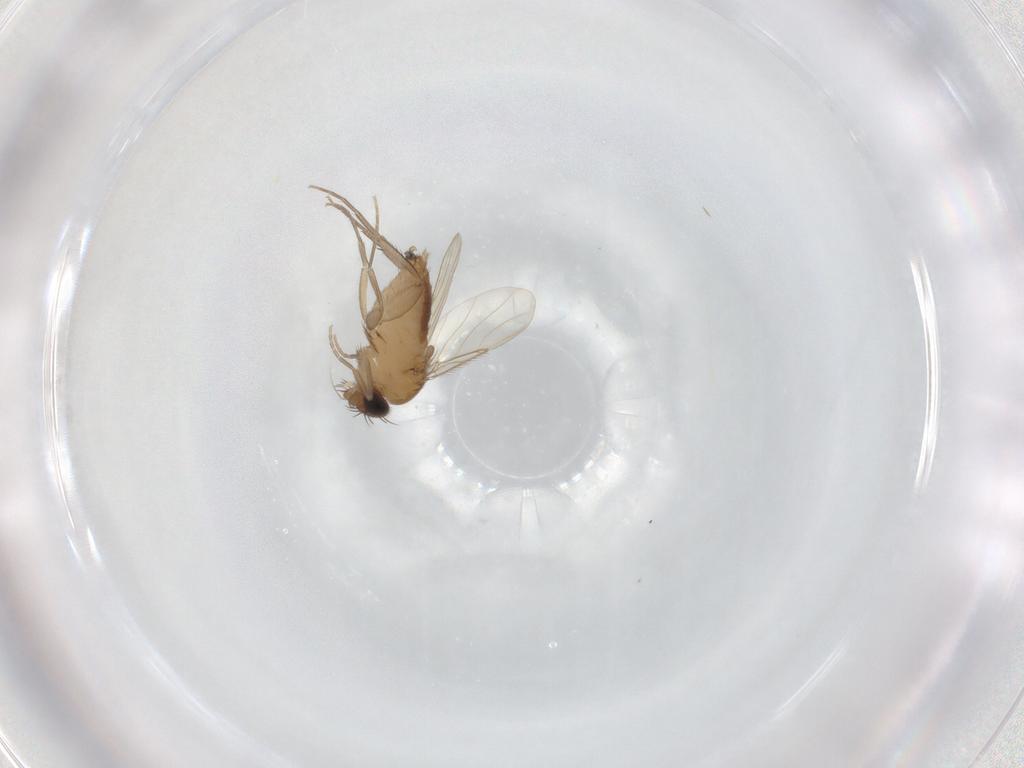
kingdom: Animalia
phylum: Arthropoda
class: Insecta
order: Diptera
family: Phoridae
